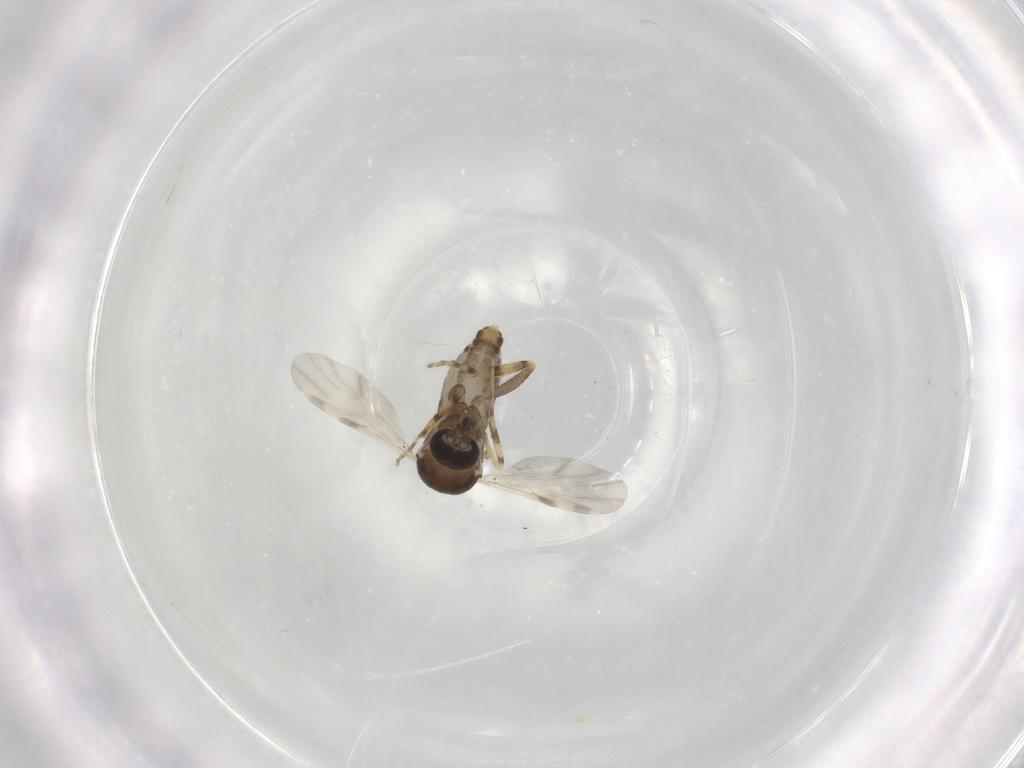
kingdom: Animalia
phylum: Arthropoda
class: Insecta
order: Diptera
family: Ceratopogonidae
